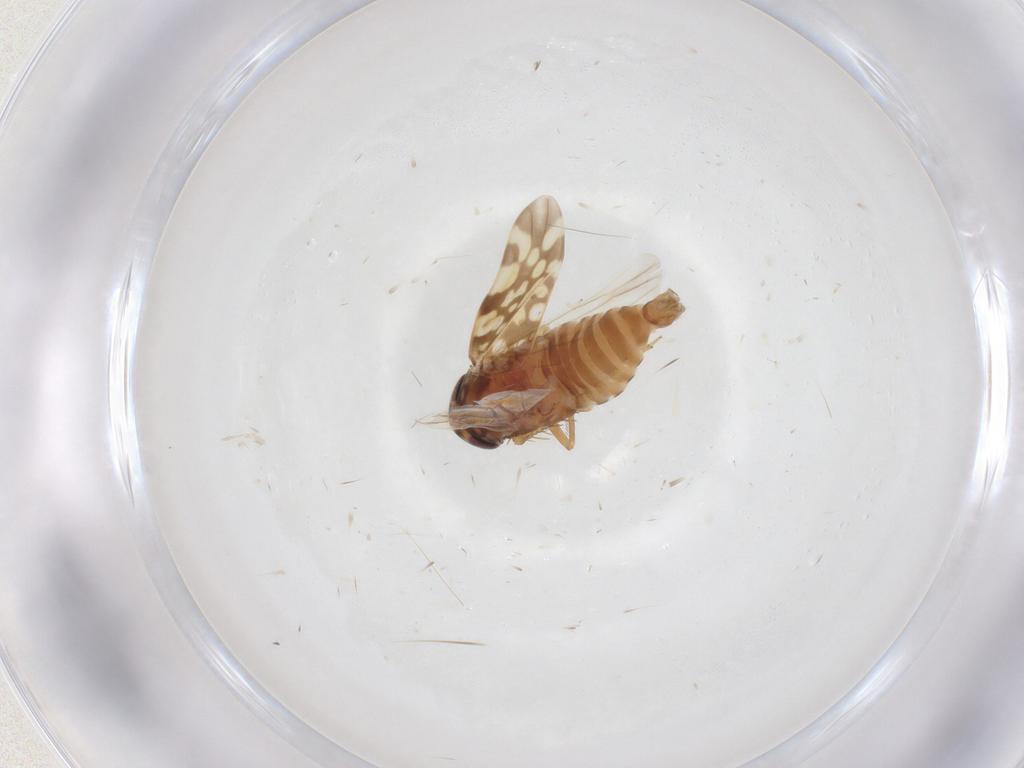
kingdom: Animalia
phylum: Arthropoda
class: Insecta
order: Hemiptera
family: Cicadellidae
